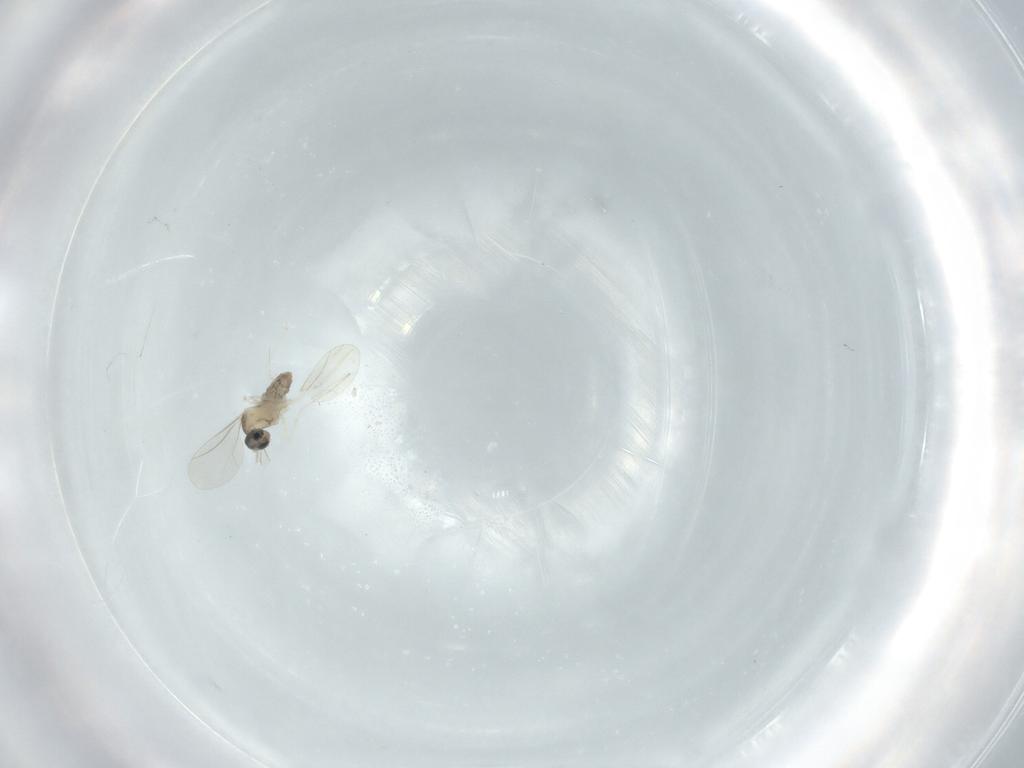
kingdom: Animalia
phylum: Arthropoda
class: Insecta
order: Diptera
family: Cecidomyiidae
